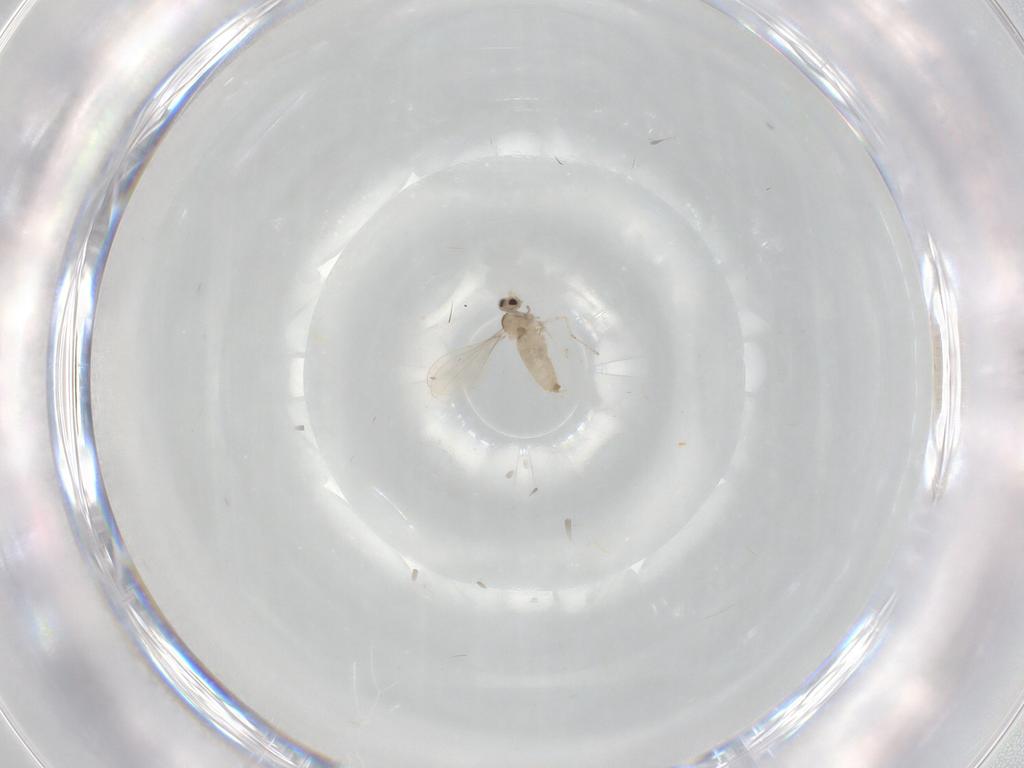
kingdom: Animalia
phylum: Arthropoda
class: Insecta
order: Diptera
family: Cecidomyiidae
